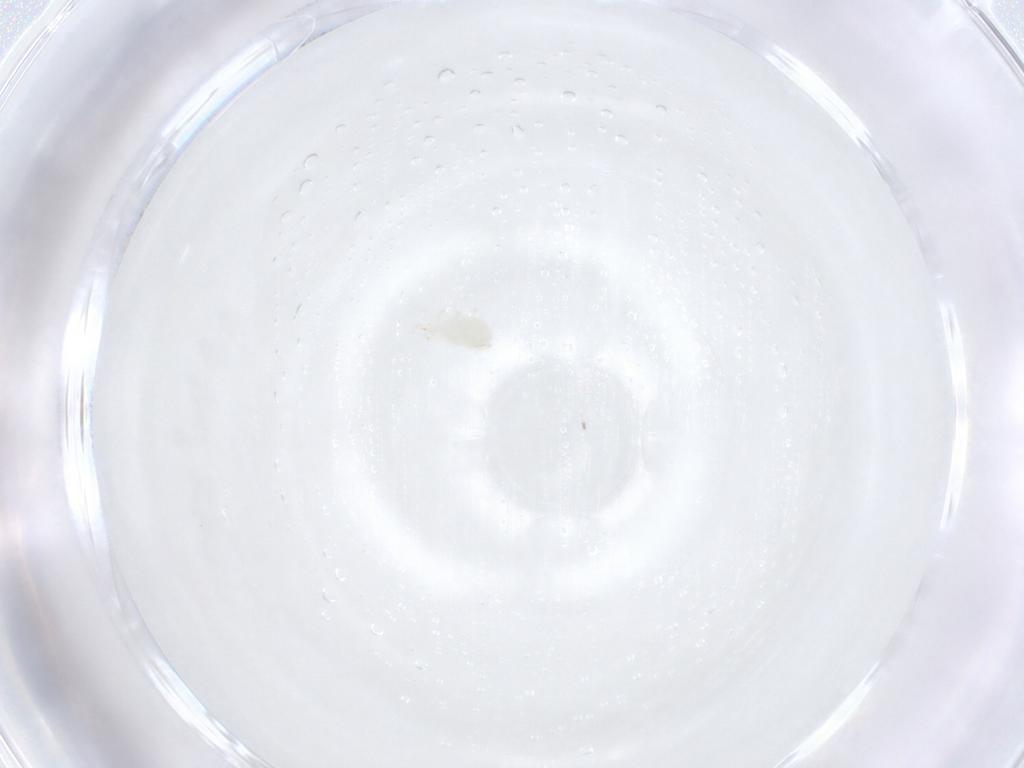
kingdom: Animalia
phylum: Arthropoda
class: Arachnida
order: Mesostigmata
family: Phytoseiidae
